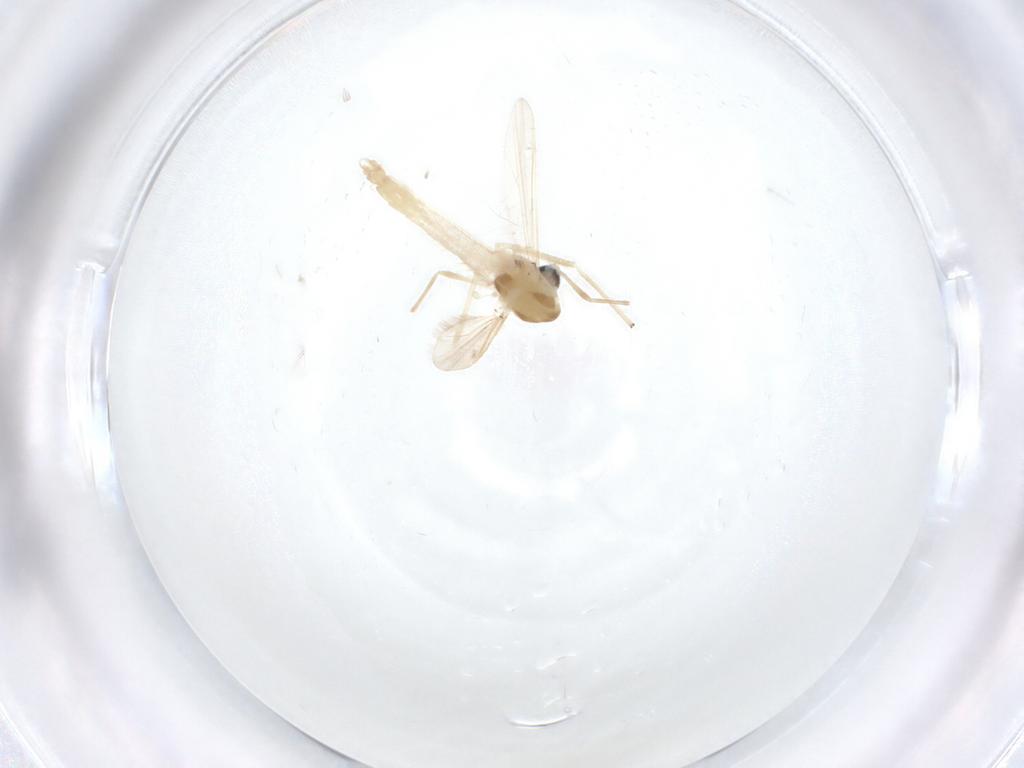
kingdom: Animalia
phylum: Arthropoda
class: Insecta
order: Diptera
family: Chironomidae
